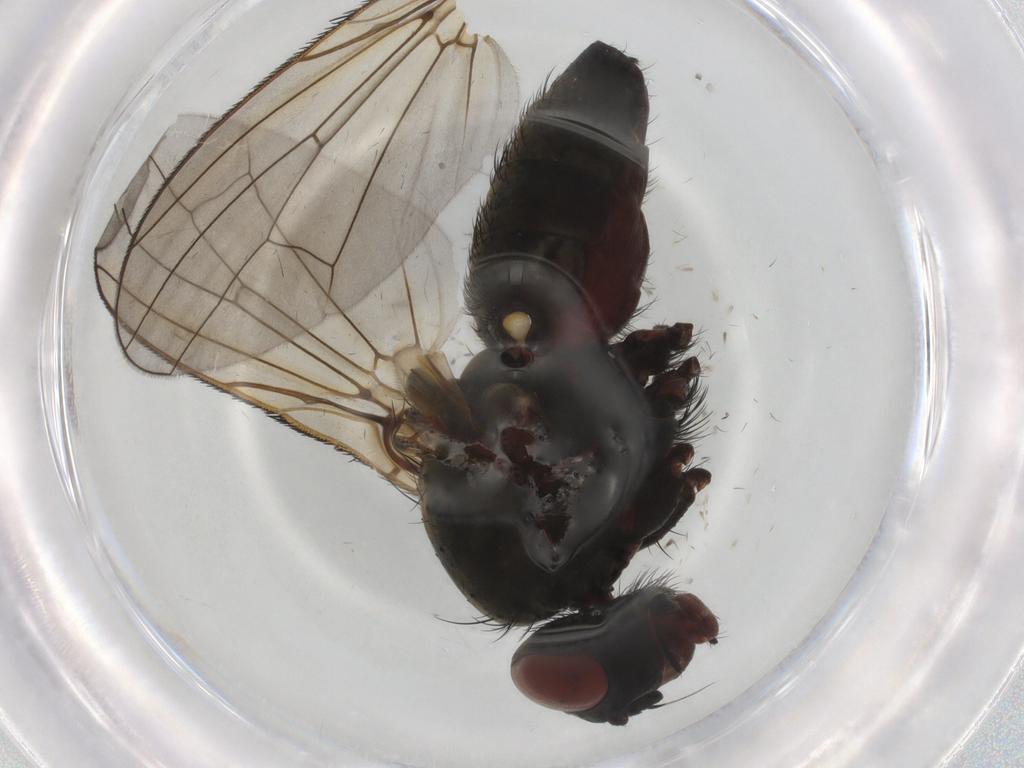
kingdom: Animalia
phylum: Arthropoda
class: Insecta
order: Diptera
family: Anthomyiidae
